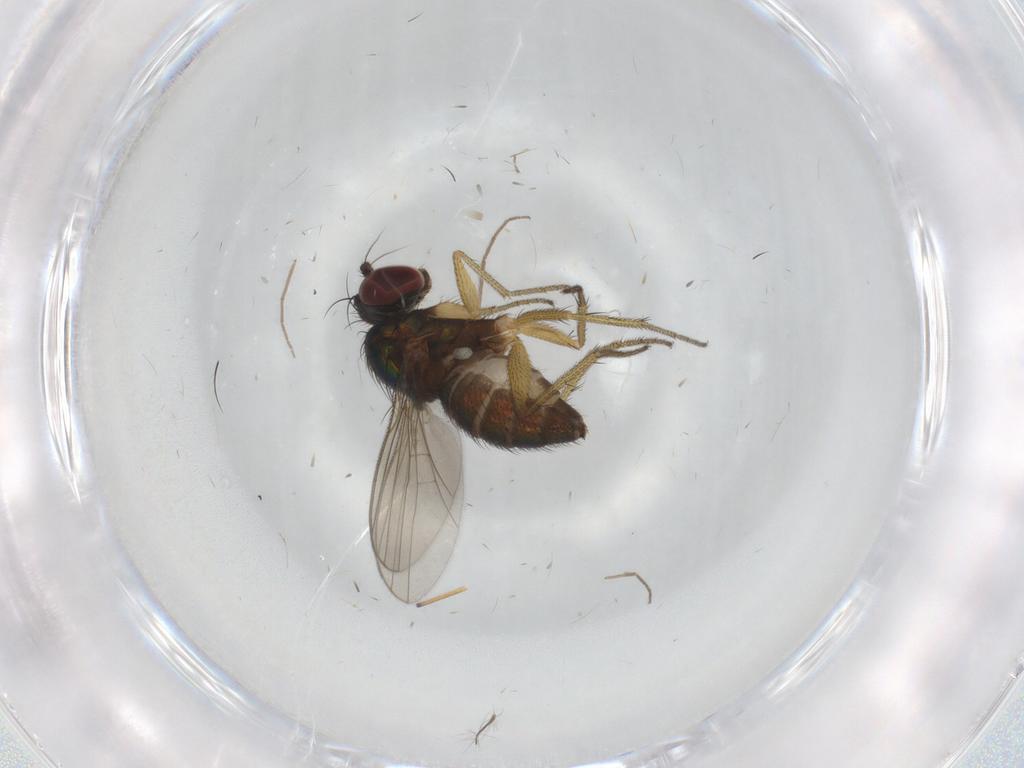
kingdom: Animalia
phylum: Arthropoda
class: Insecta
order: Diptera
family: Dolichopodidae
